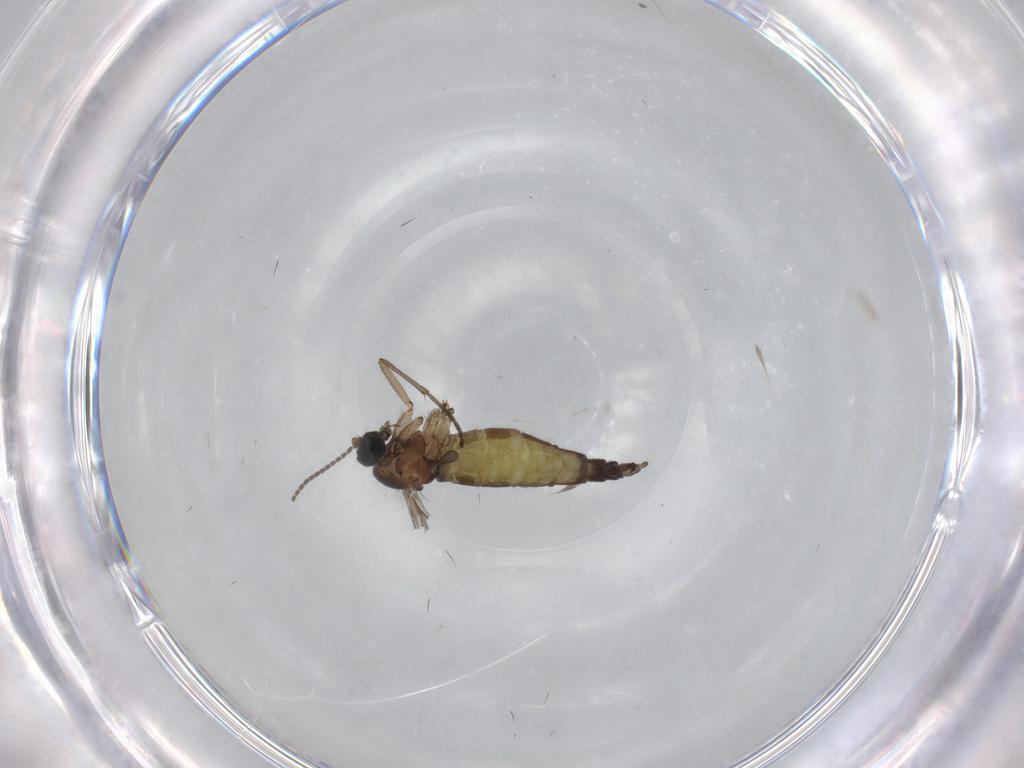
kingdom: Animalia
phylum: Arthropoda
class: Insecta
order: Diptera
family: Sciaridae
